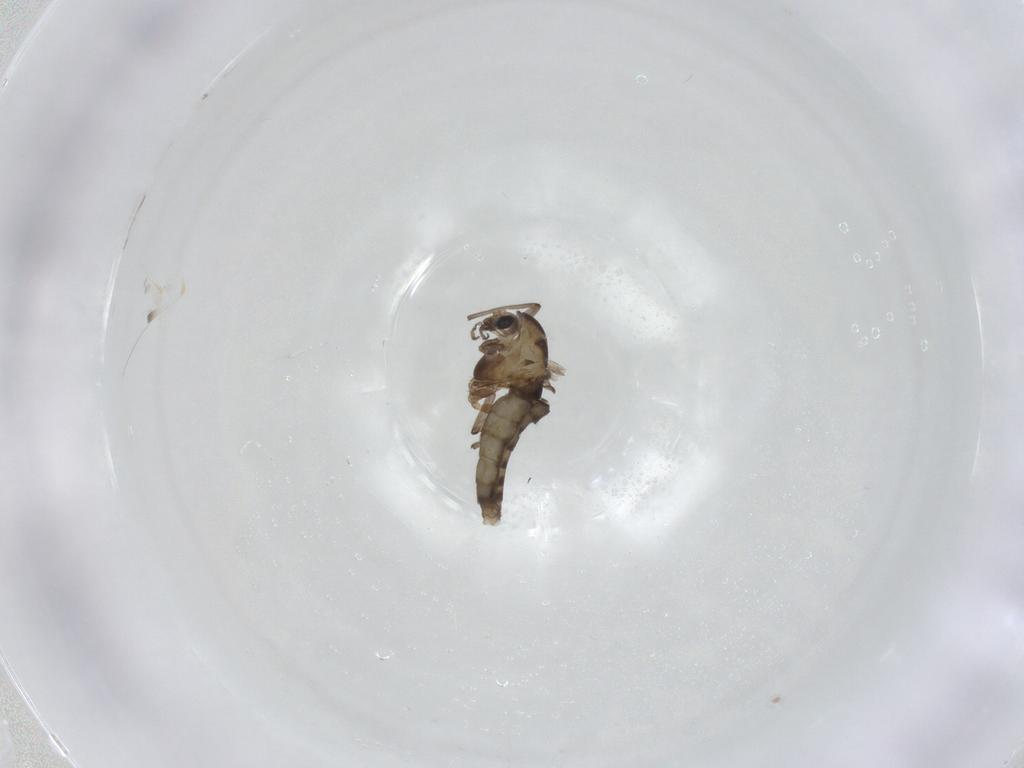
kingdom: Animalia
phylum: Arthropoda
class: Insecta
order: Diptera
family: Chironomidae
